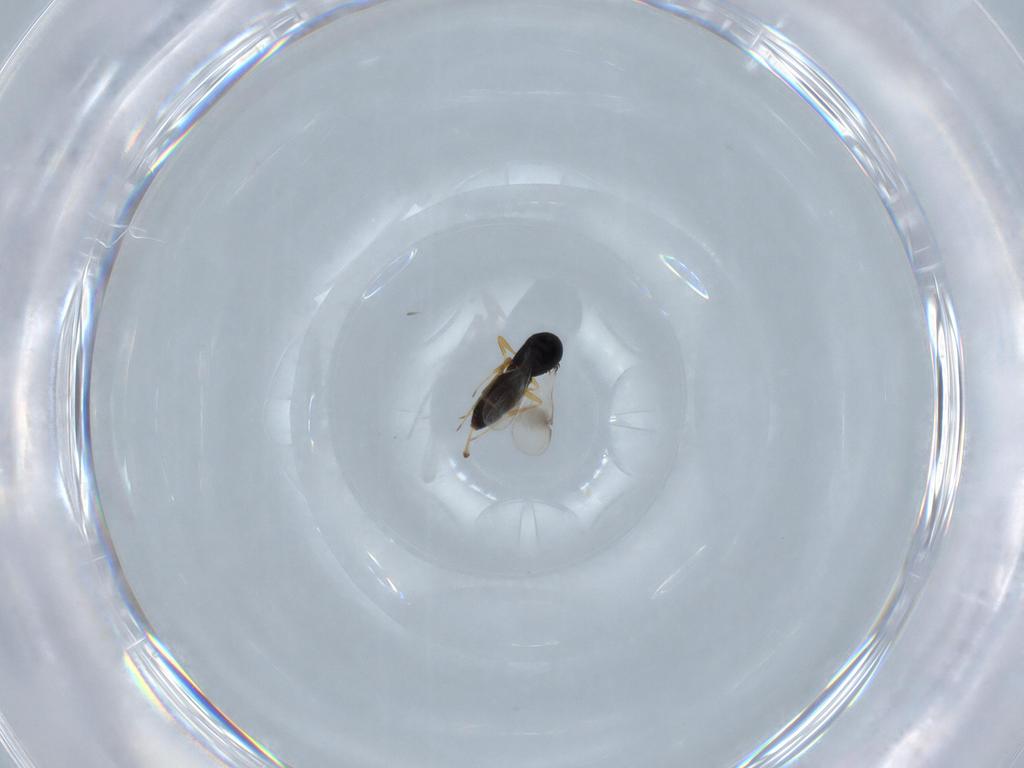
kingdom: Animalia
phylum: Arthropoda
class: Insecta
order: Hymenoptera
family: Scelionidae
